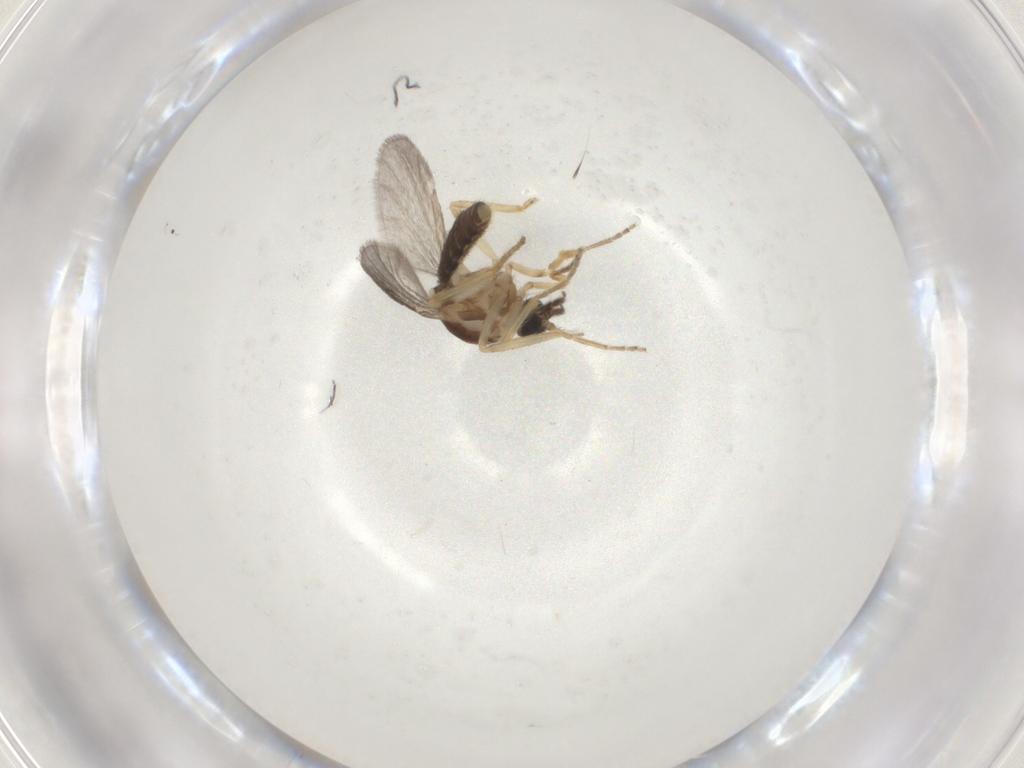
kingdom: Animalia
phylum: Arthropoda
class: Insecta
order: Diptera
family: Ceratopogonidae
